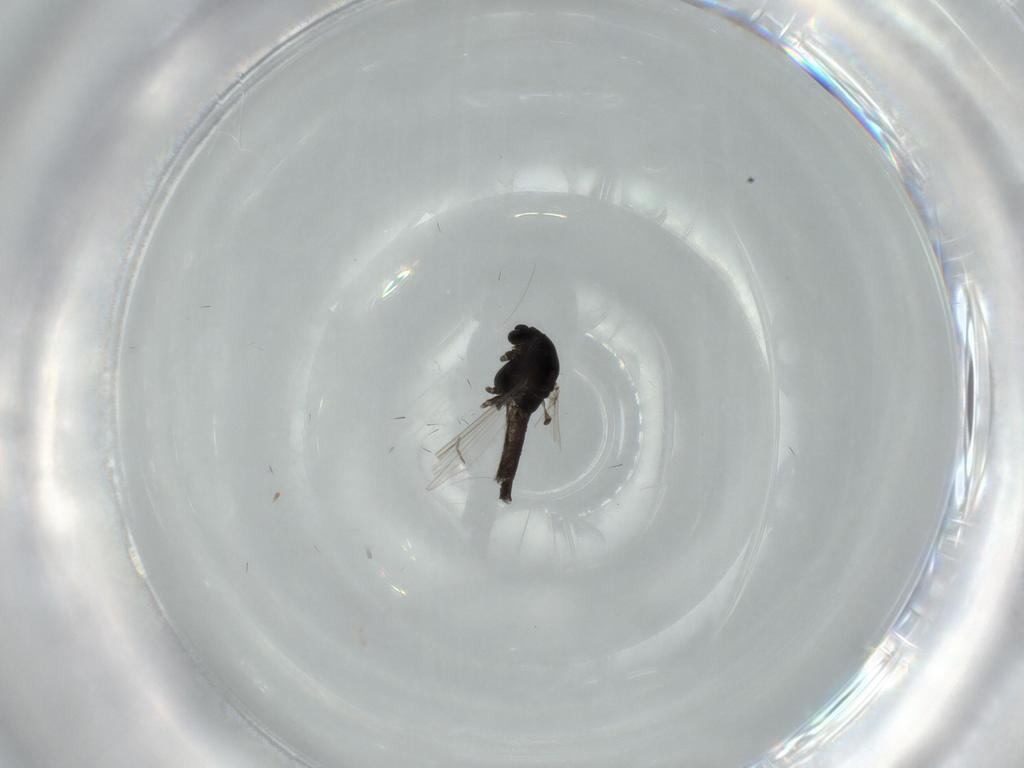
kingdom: Animalia
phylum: Arthropoda
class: Insecta
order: Diptera
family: Chironomidae
